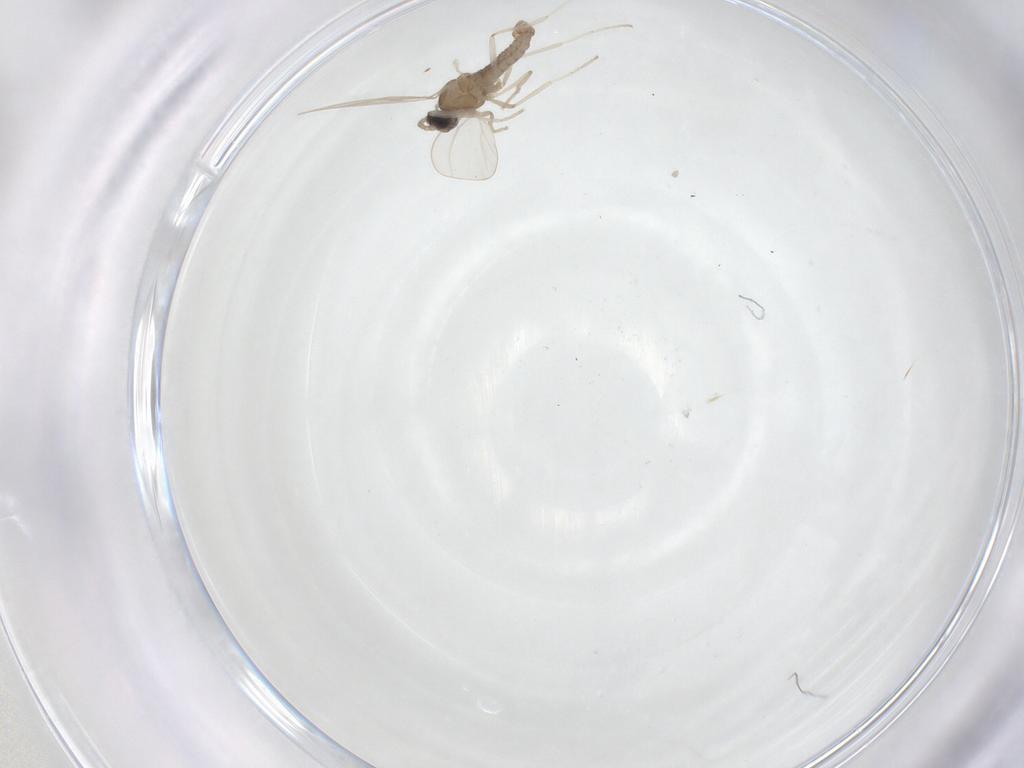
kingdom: Animalia
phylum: Arthropoda
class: Insecta
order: Diptera
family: Cecidomyiidae
